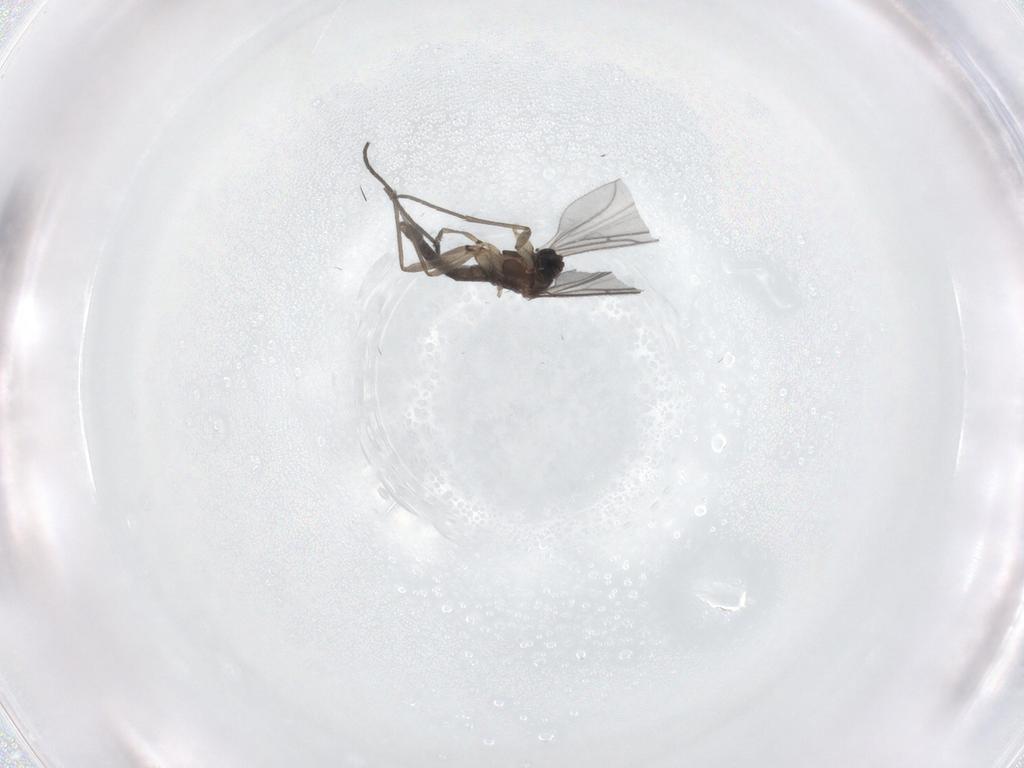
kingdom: Animalia
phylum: Arthropoda
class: Insecta
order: Diptera
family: Sciaridae
